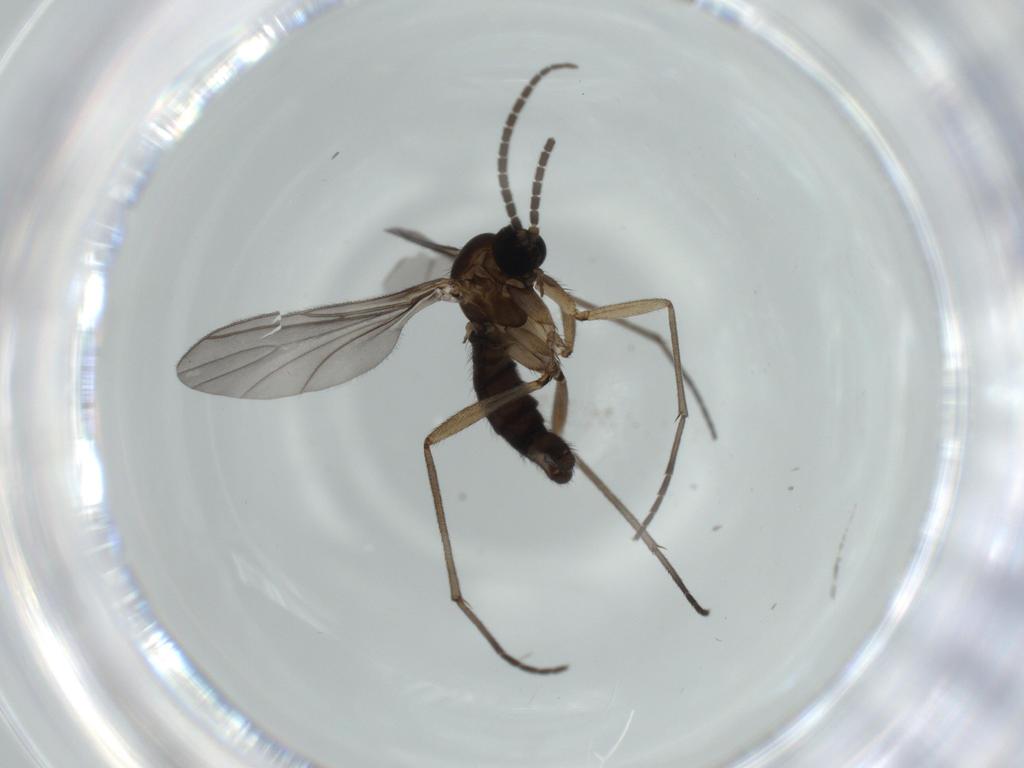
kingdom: Animalia
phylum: Arthropoda
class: Insecta
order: Diptera
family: Sciaridae
